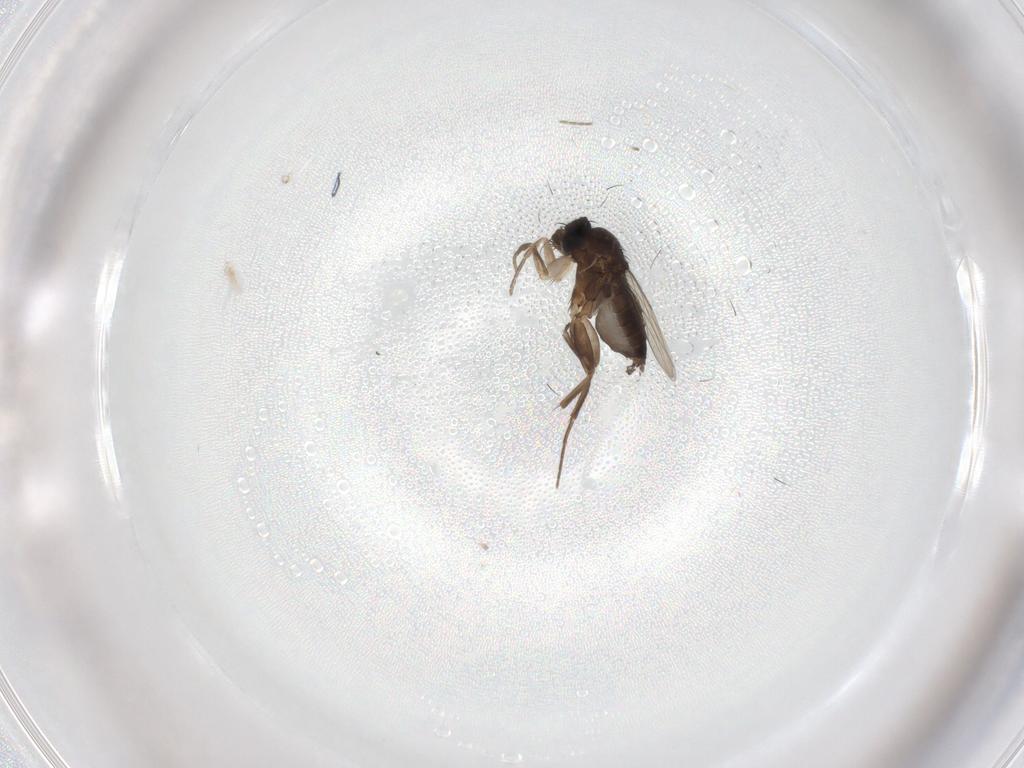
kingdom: Animalia
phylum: Arthropoda
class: Insecta
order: Diptera
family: Phoridae
